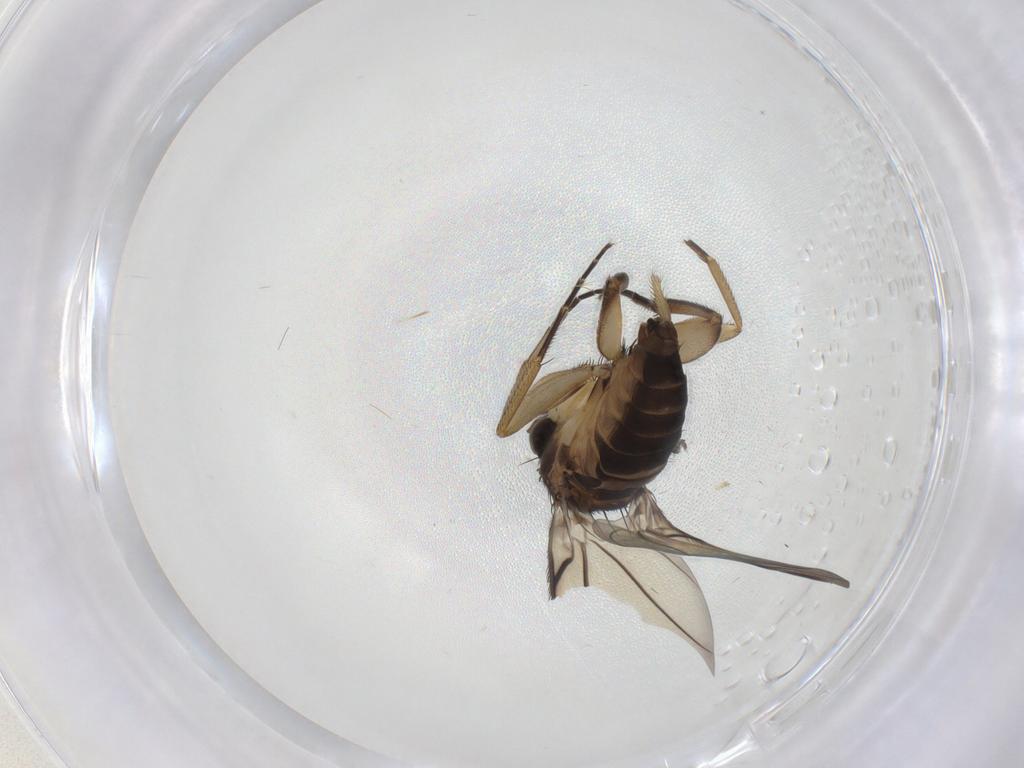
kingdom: Animalia
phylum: Arthropoda
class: Insecta
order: Diptera
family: Phoridae
